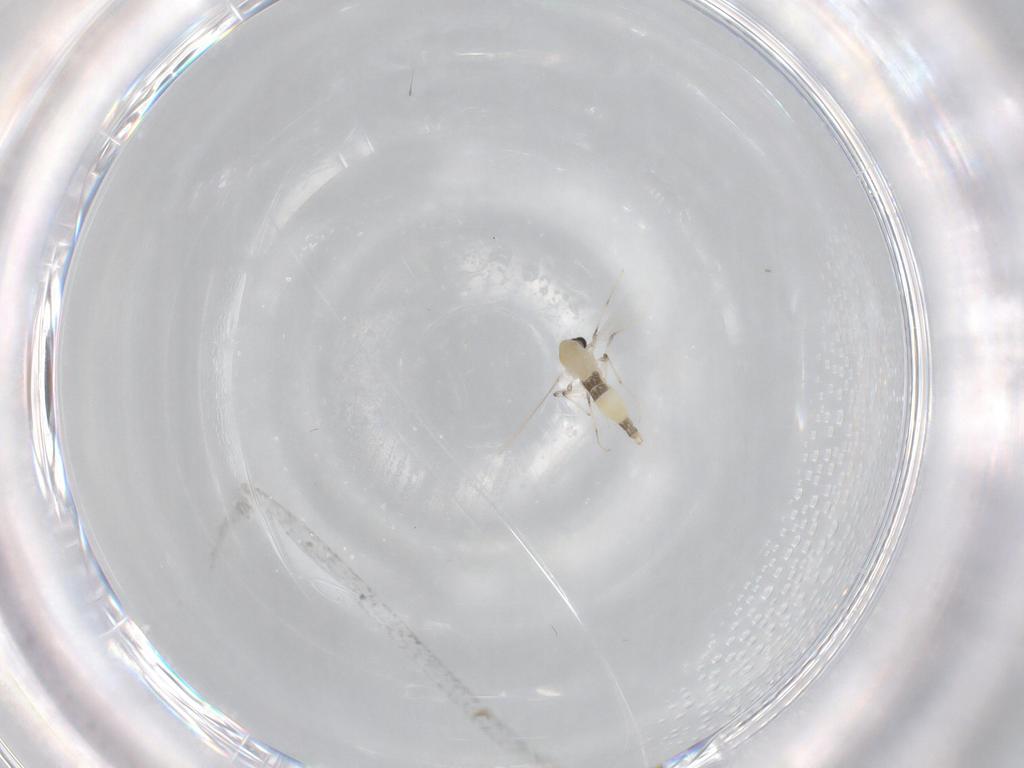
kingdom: Animalia
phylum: Arthropoda
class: Insecta
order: Diptera
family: Chironomidae
